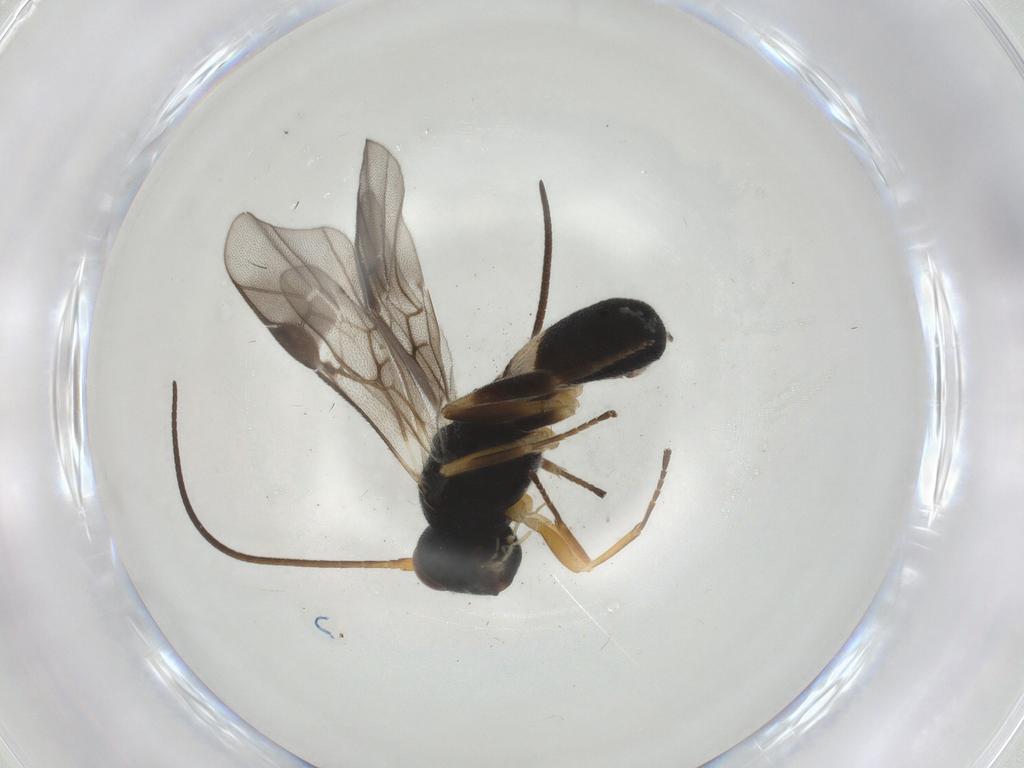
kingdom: Animalia
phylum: Arthropoda
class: Insecta
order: Hymenoptera
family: Braconidae
